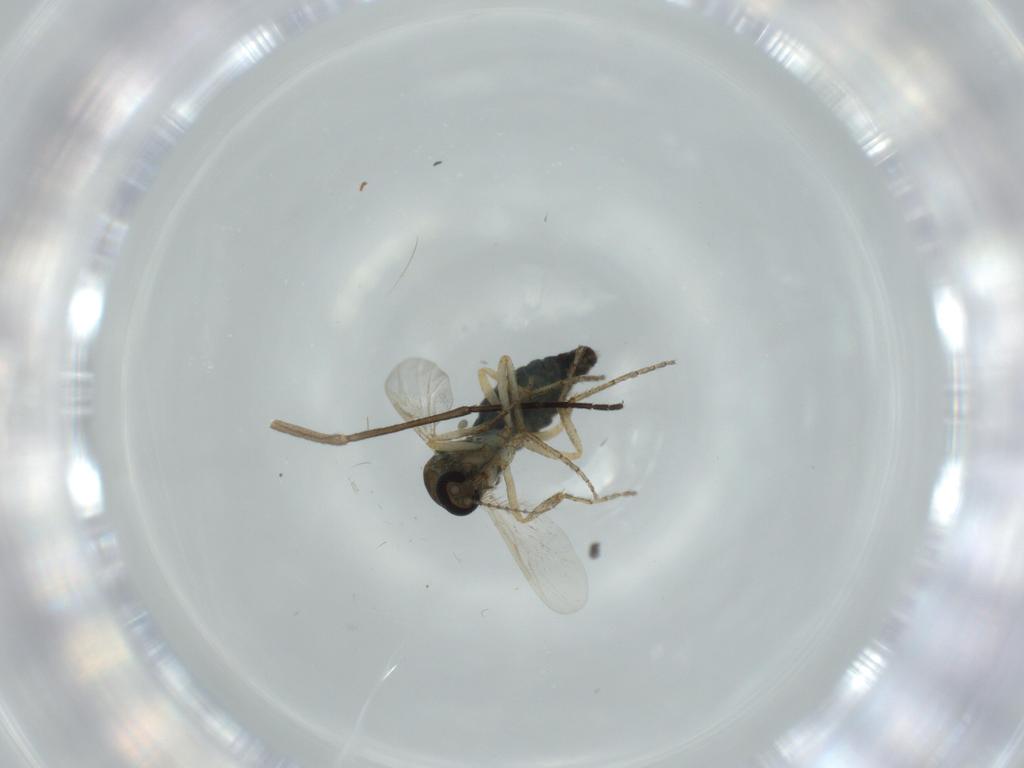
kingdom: Animalia
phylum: Arthropoda
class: Insecta
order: Diptera
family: Ceratopogonidae
